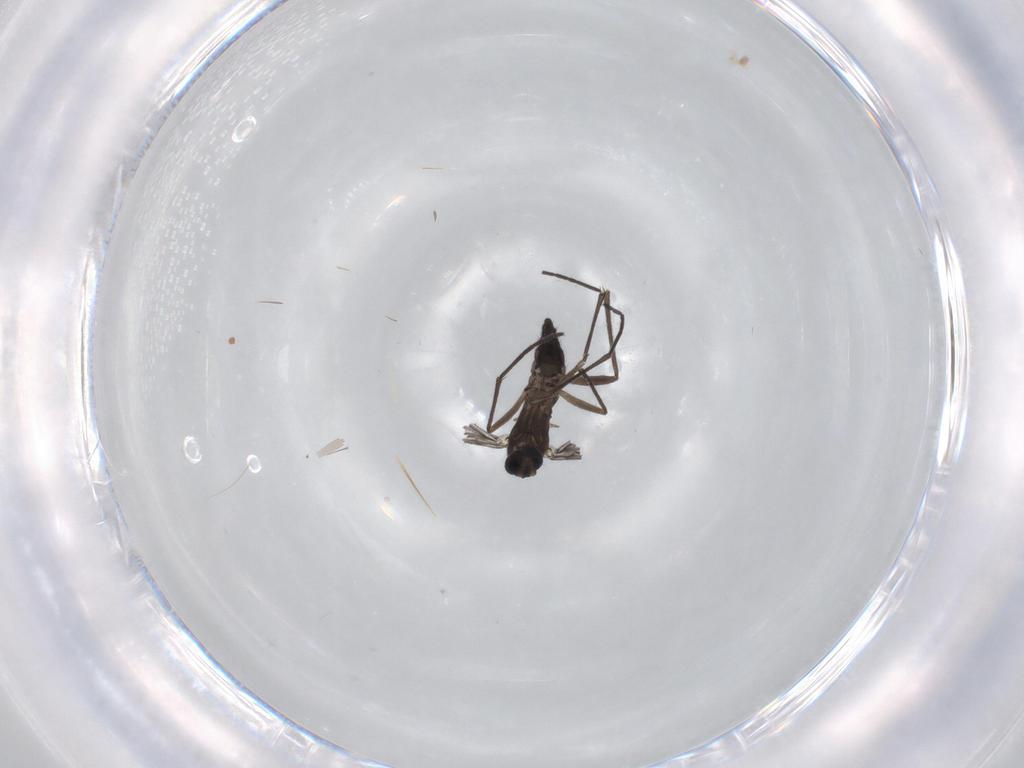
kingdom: Animalia
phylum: Arthropoda
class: Insecta
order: Diptera
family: Sciaridae
